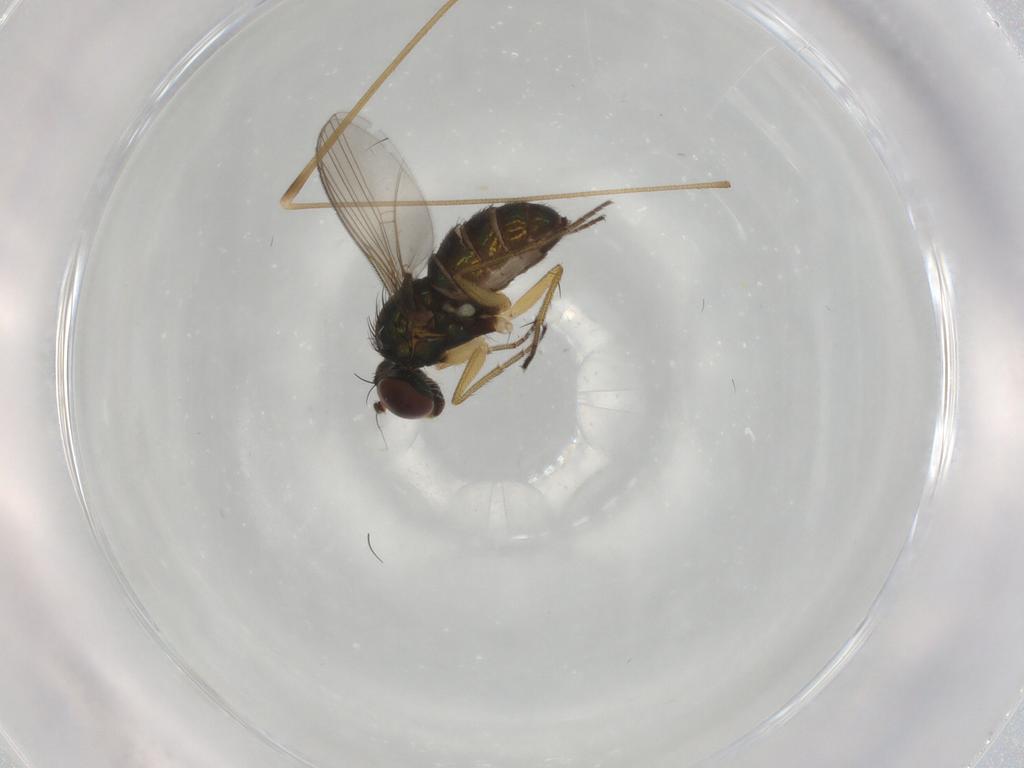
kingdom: Animalia
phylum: Arthropoda
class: Insecta
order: Diptera
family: Limoniidae
